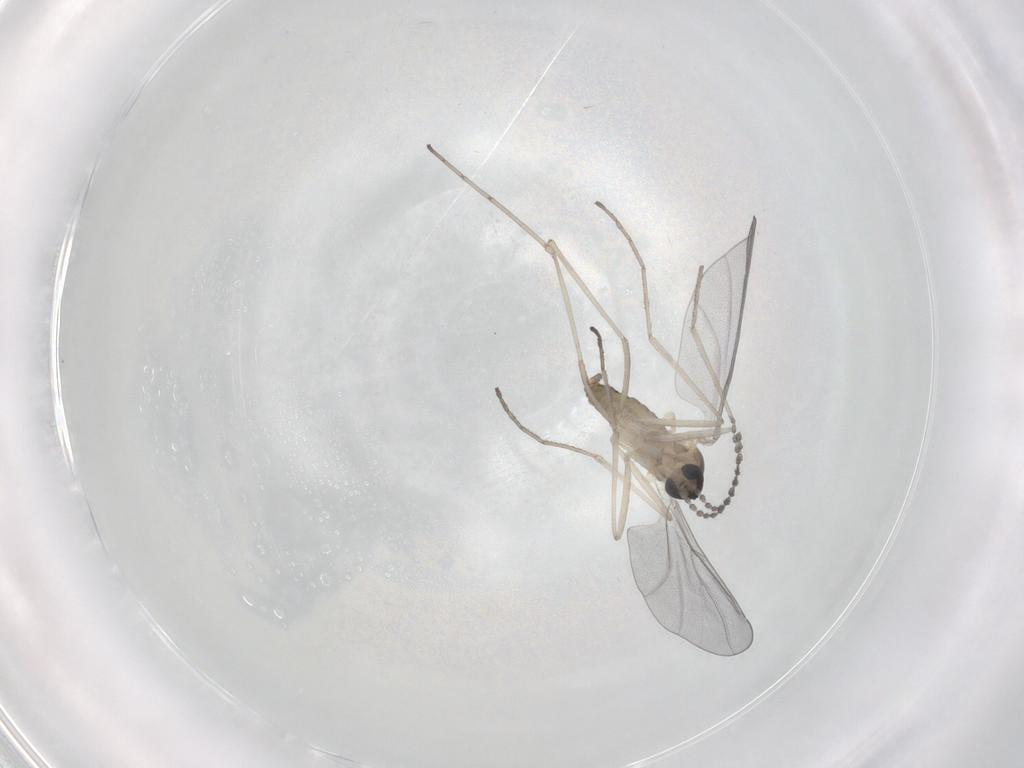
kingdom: Animalia
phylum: Arthropoda
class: Insecta
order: Diptera
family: Cecidomyiidae
